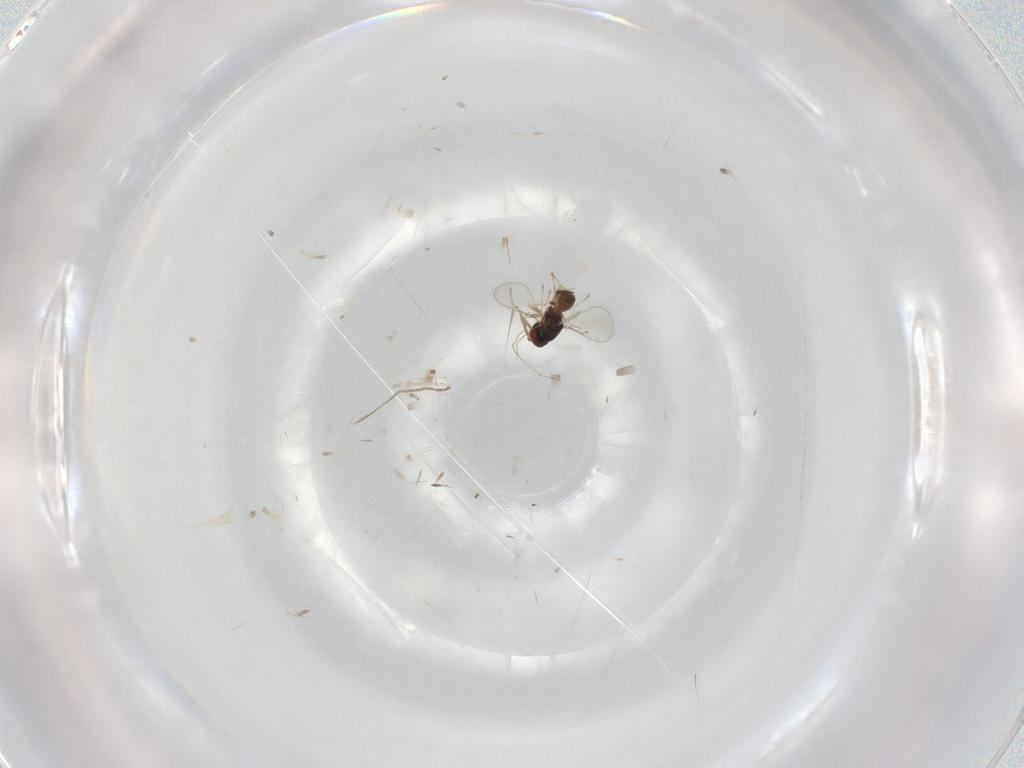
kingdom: Animalia
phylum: Arthropoda
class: Insecta
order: Hymenoptera
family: Eulophidae
